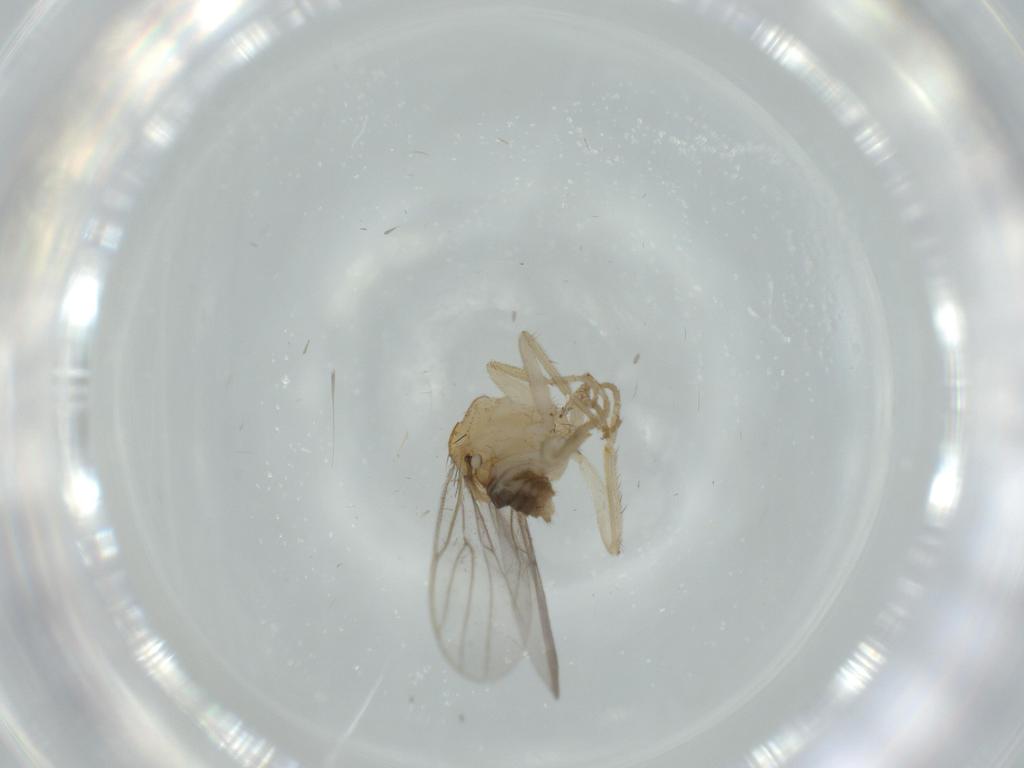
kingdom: Animalia
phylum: Arthropoda
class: Insecta
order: Diptera
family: Hybotidae
